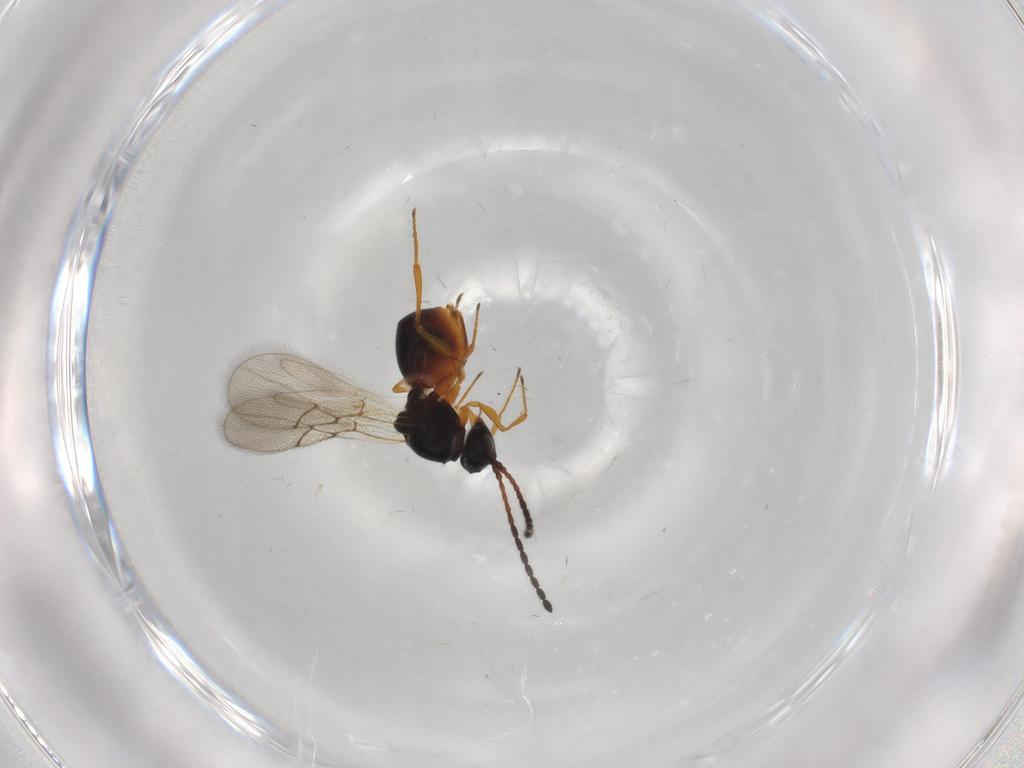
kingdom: Animalia
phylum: Arthropoda
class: Insecta
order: Hymenoptera
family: Figitidae
